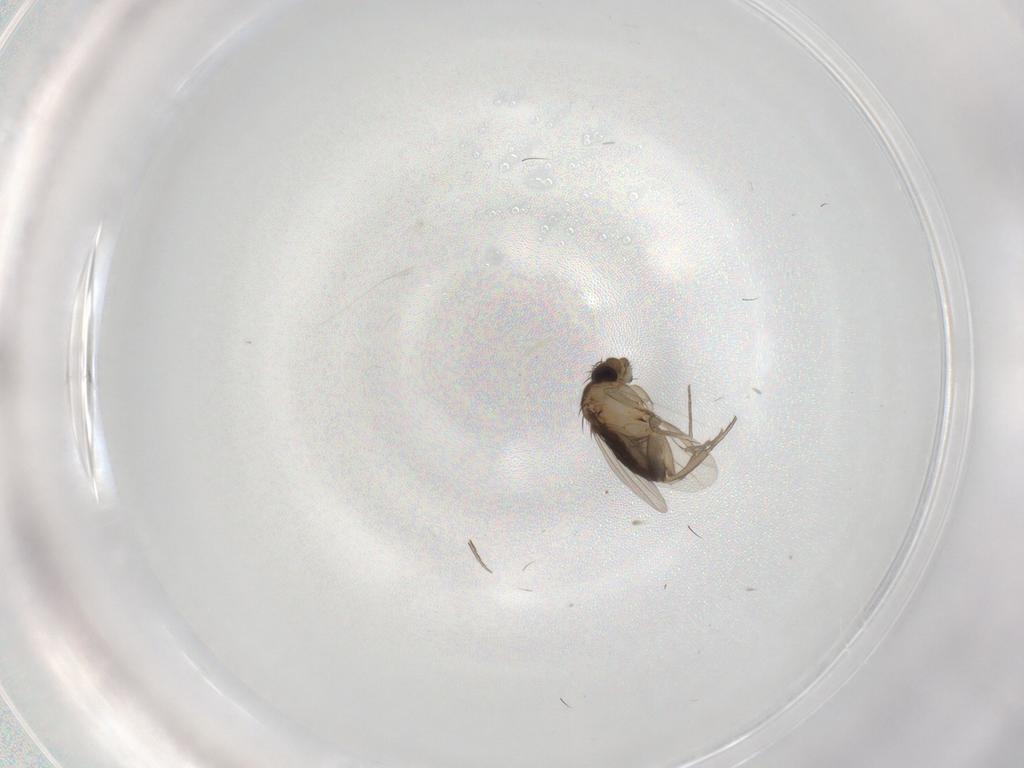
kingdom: Animalia
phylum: Arthropoda
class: Insecta
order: Diptera
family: Phoridae
